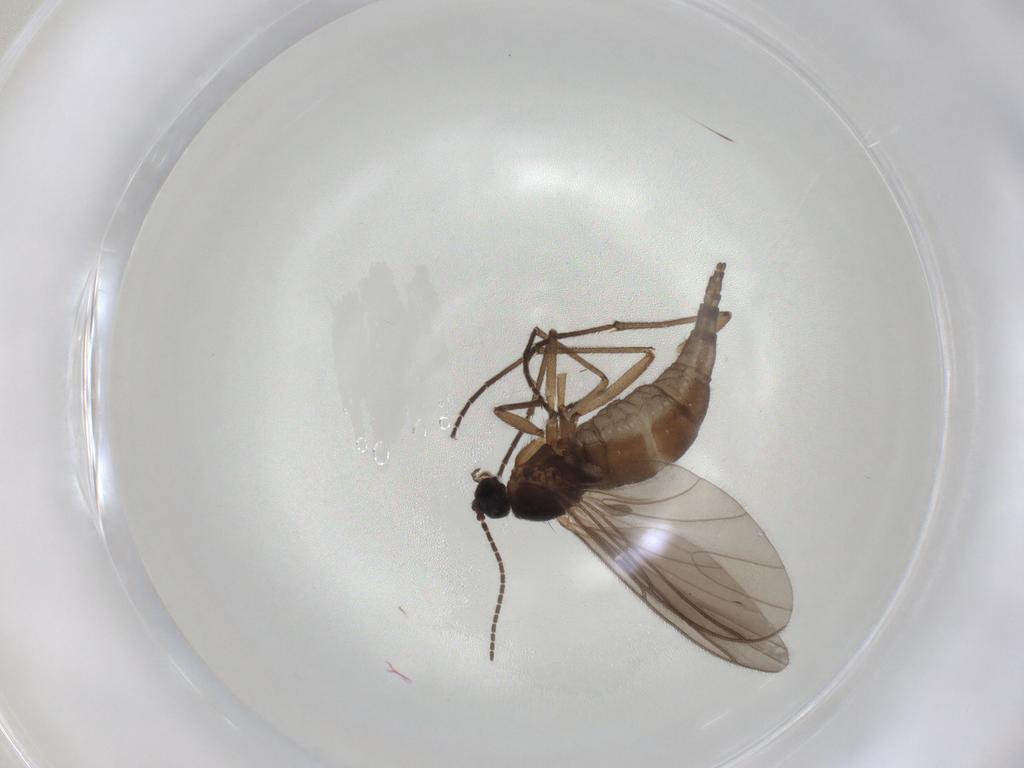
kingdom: Animalia
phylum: Arthropoda
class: Insecta
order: Diptera
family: Sciaridae
